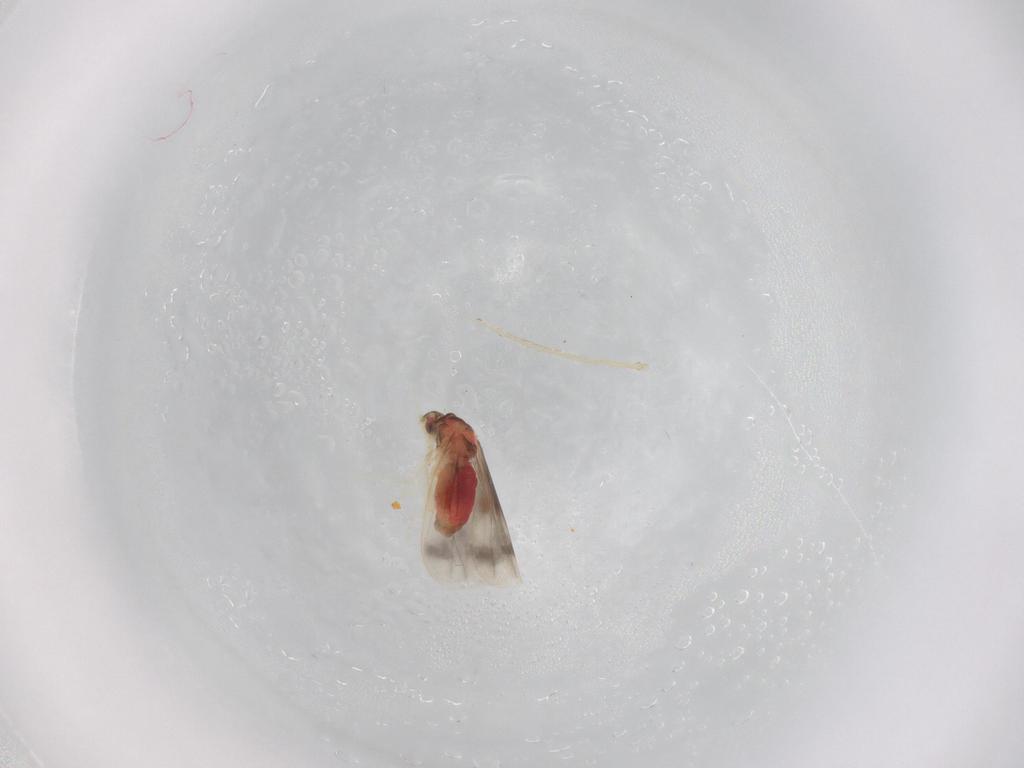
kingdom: Animalia
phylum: Arthropoda
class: Insecta
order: Hemiptera
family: Aleyrodidae
